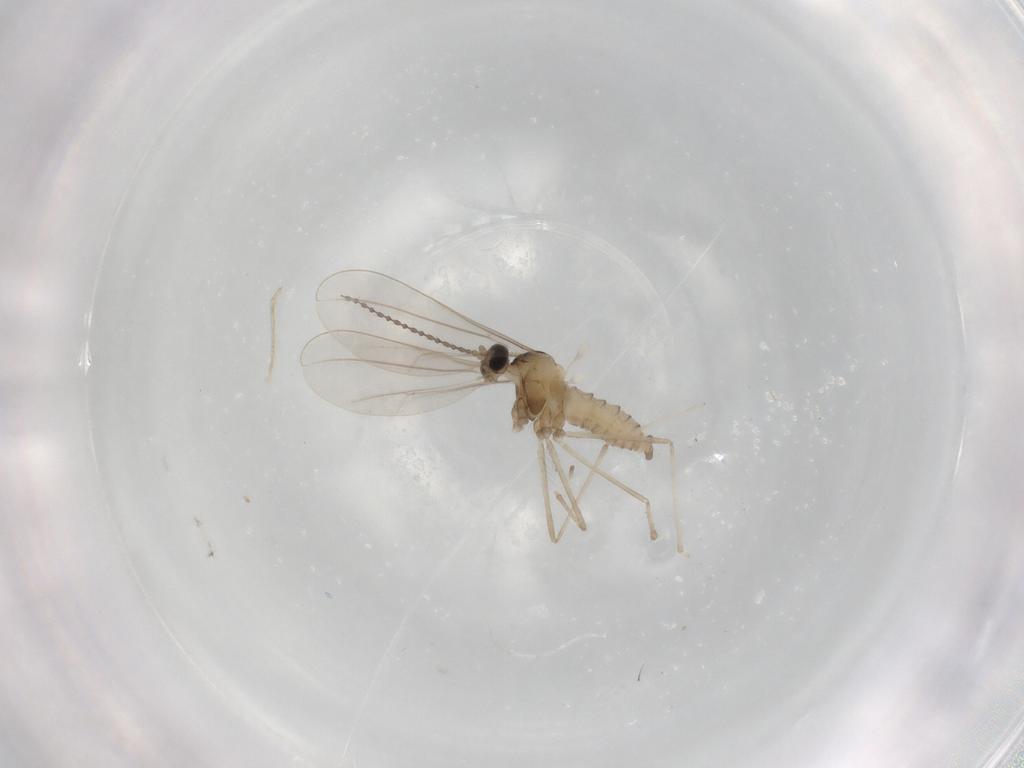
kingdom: Animalia
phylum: Arthropoda
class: Insecta
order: Diptera
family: Cecidomyiidae
